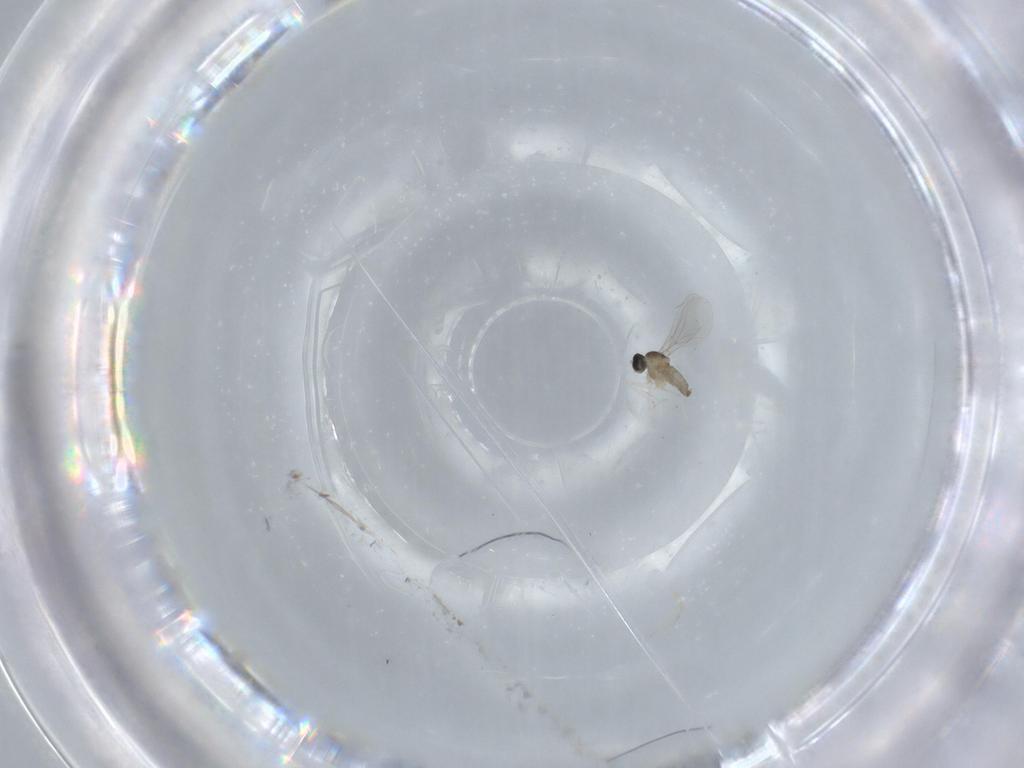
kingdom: Animalia
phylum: Arthropoda
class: Insecta
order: Diptera
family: Cecidomyiidae
